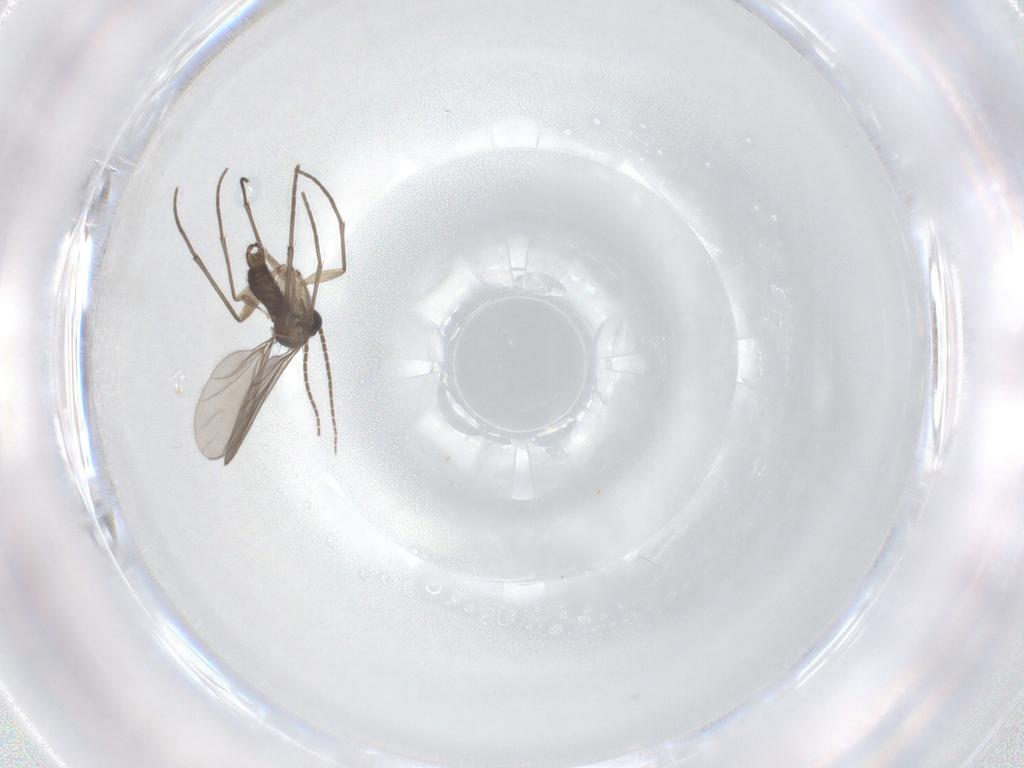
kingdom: Animalia
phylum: Arthropoda
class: Insecta
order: Diptera
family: Sciaridae
